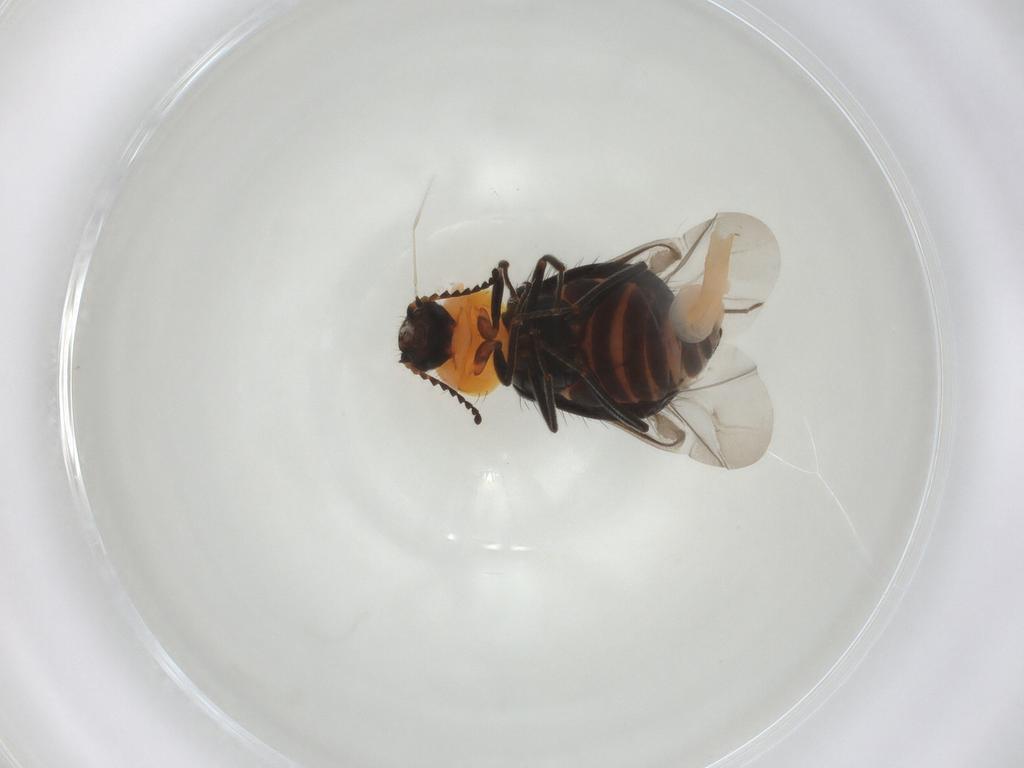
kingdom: Animalia
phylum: Arthropoda
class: Insecta
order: Coleoptera
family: Melyridae
